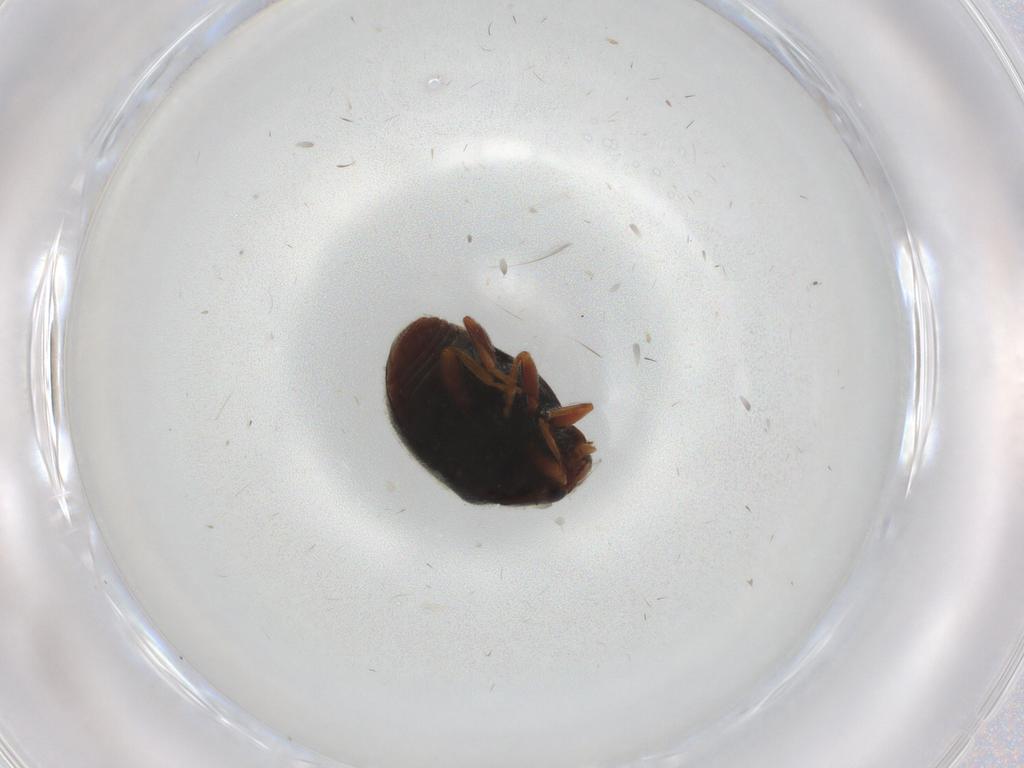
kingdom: Animalia
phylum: Arthropoda
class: Insecta
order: Coleoptera
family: Coccinellidae
